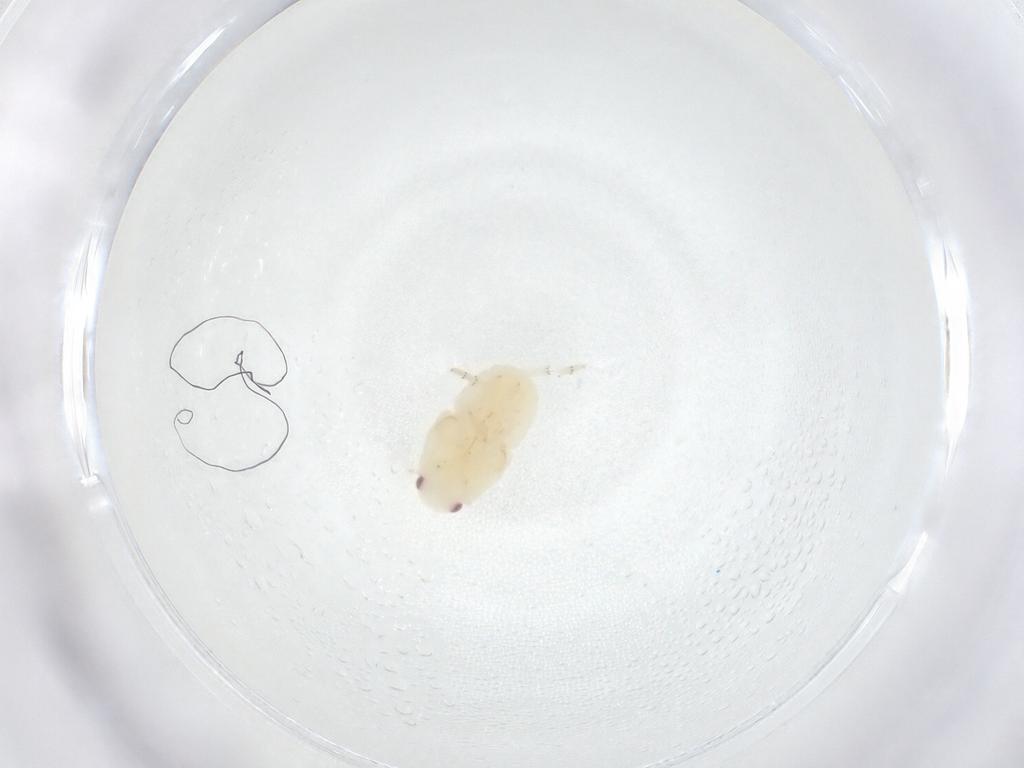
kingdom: Animalia
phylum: Arthropoda
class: Insecta
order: Hemiptera
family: Flatidae
